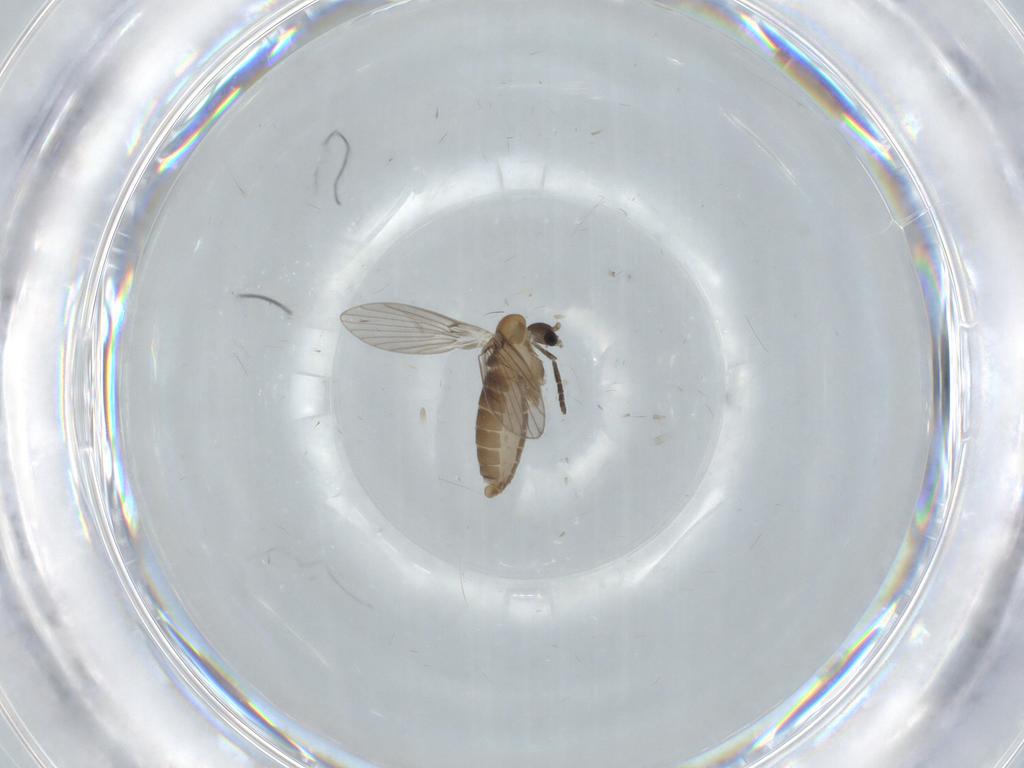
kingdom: Animalia
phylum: Arthropoda
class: Insecta
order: Diptera
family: Psychodidae
